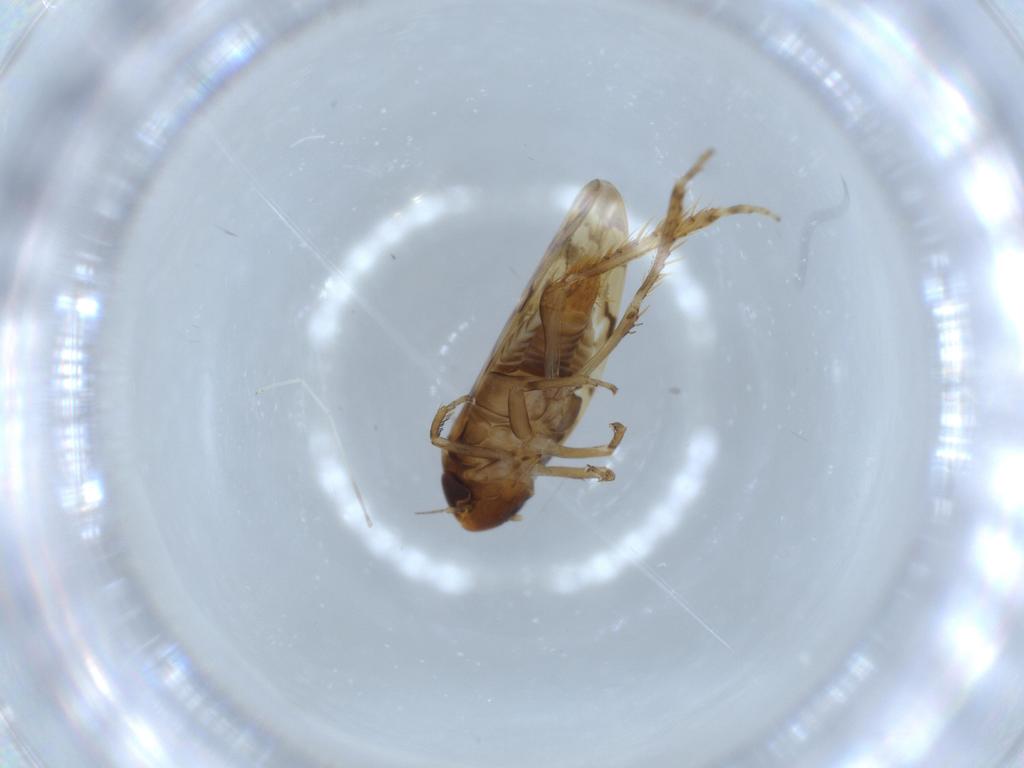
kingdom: Animalia
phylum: Arthropoda
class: Insecta
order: Hemiptera
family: Cicadellidae
